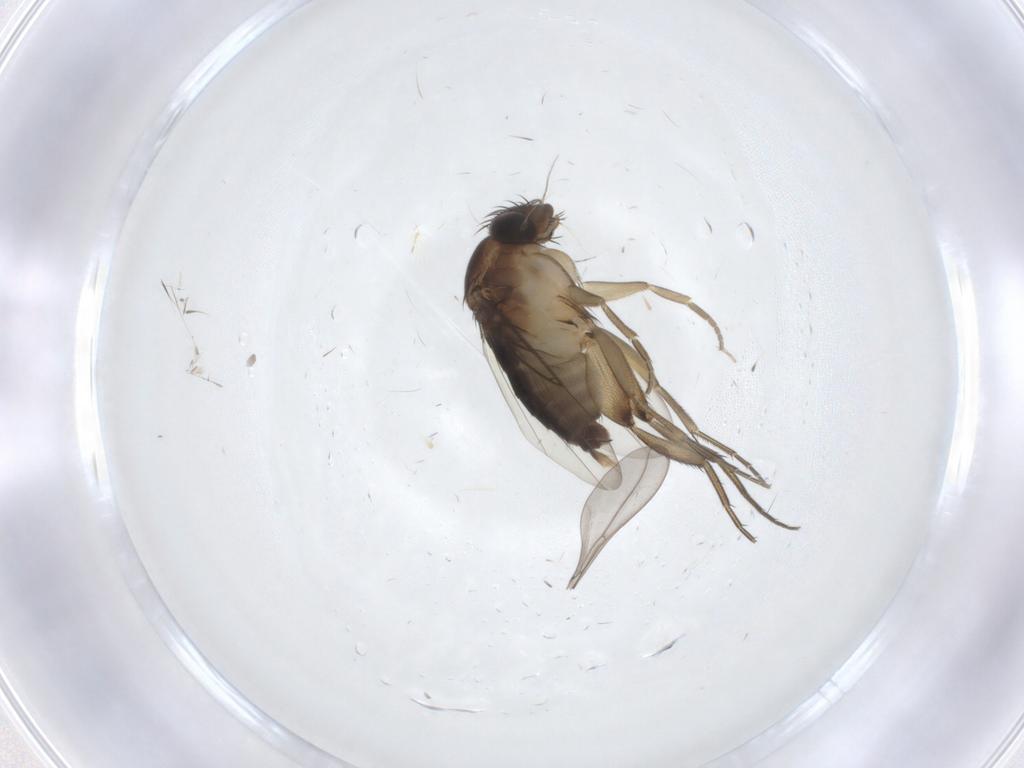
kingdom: Animalia
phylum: Arthropoda
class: Insecta
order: Diptera
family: Phoridae
